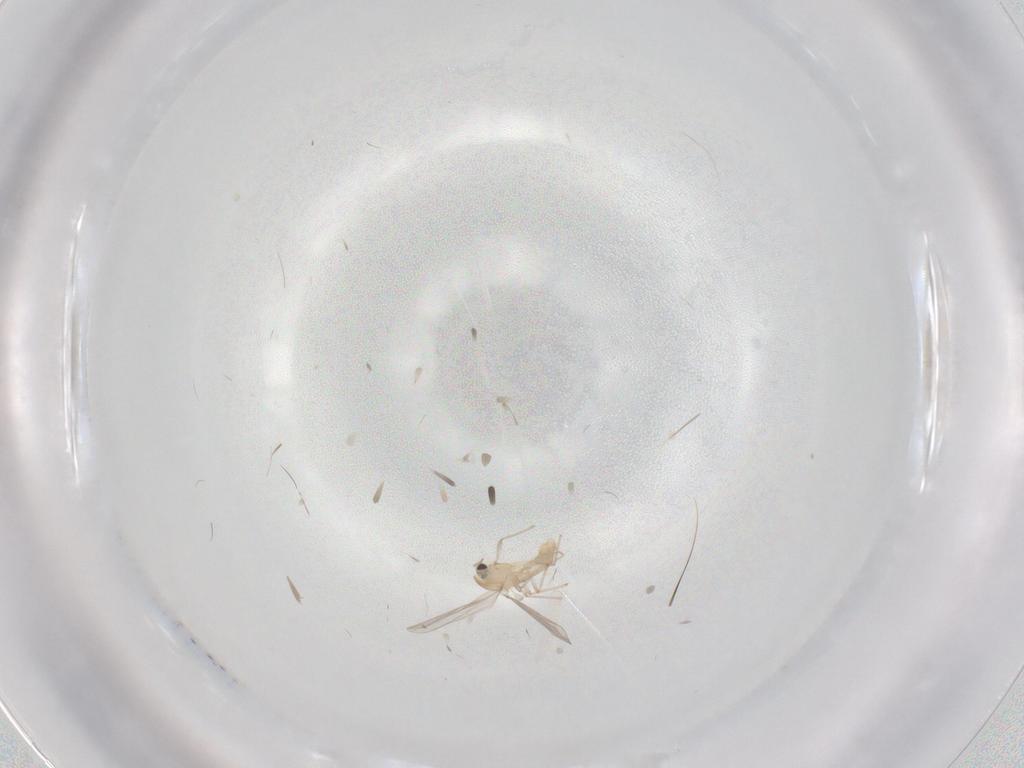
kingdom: Animalia
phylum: Arthropoda
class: Insecta
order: Diptera
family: Chironomidae
